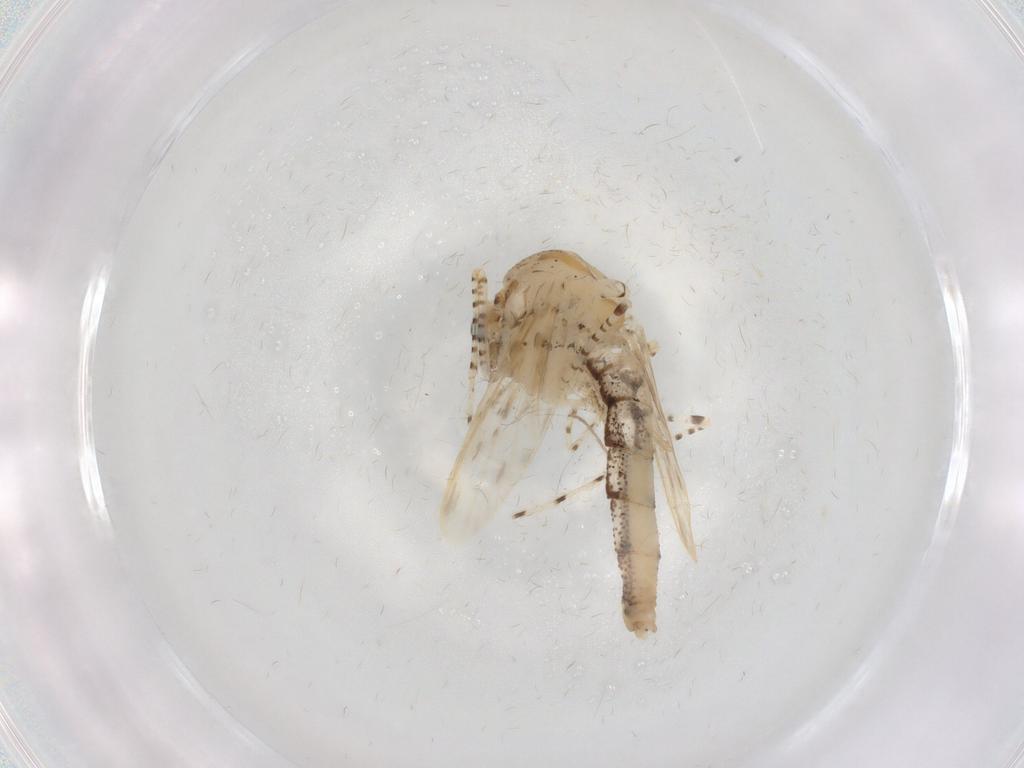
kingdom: Animalia
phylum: Arthropoda
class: Insecta
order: Diptera
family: Chaoboridae
